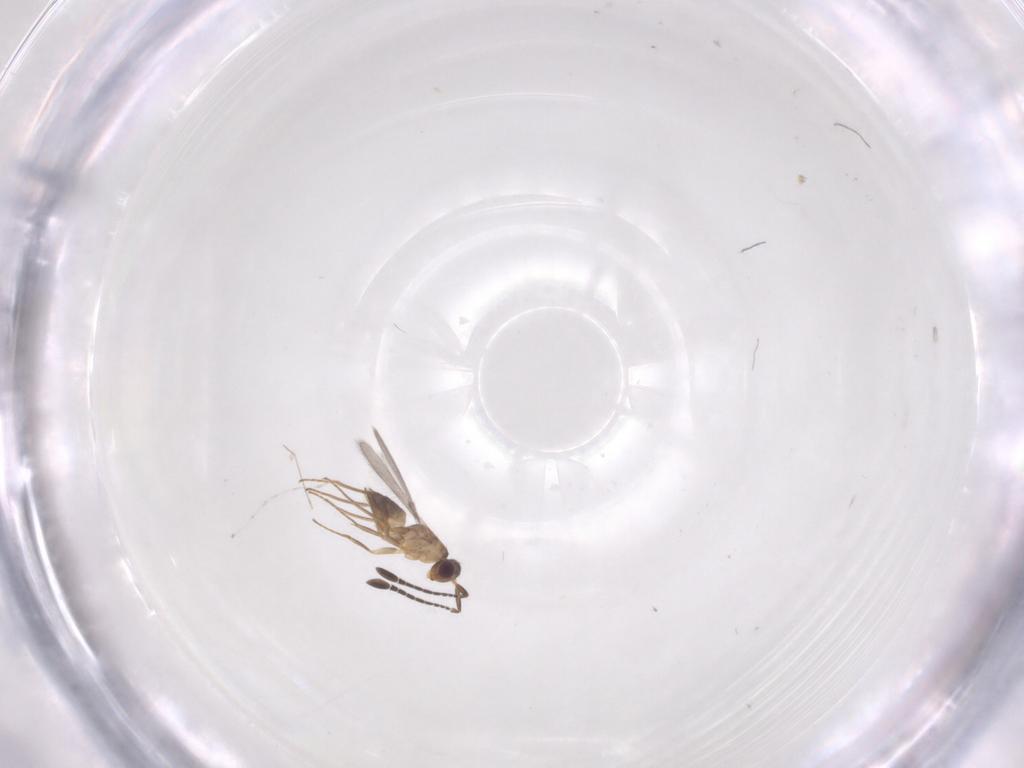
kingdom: Animalia
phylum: Arthropoda
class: Insecta
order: Hymenoptera
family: Mymaridae
